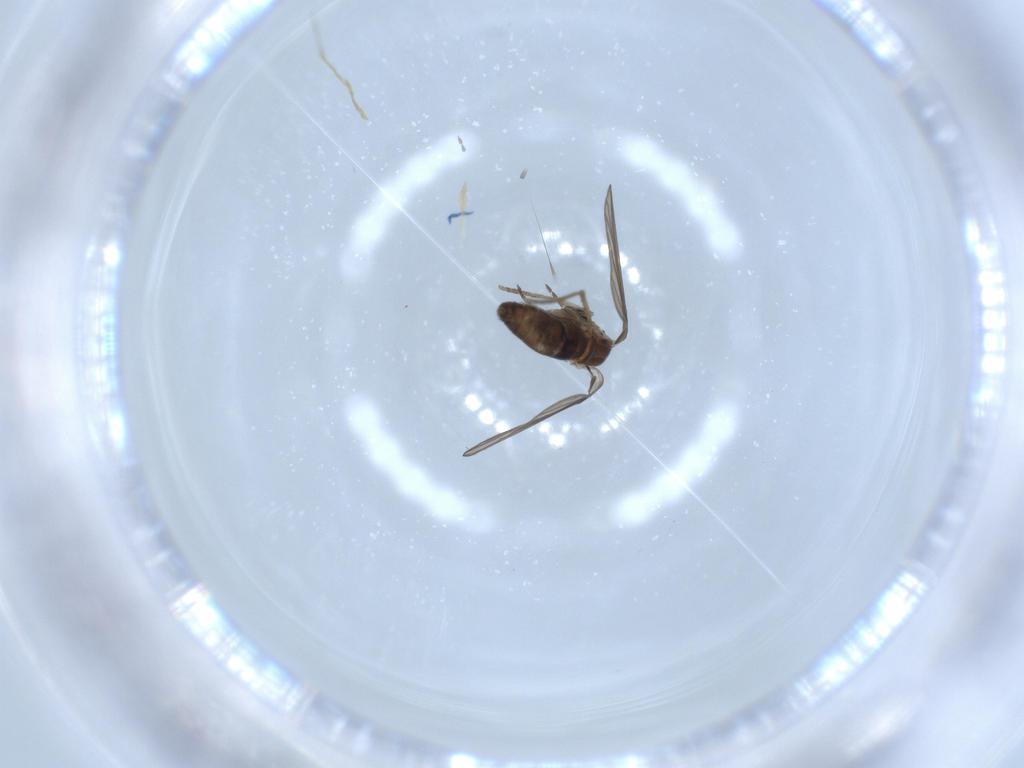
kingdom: Animalia
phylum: Arthropoda
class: Insecta
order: Diptera
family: Psychodidae
